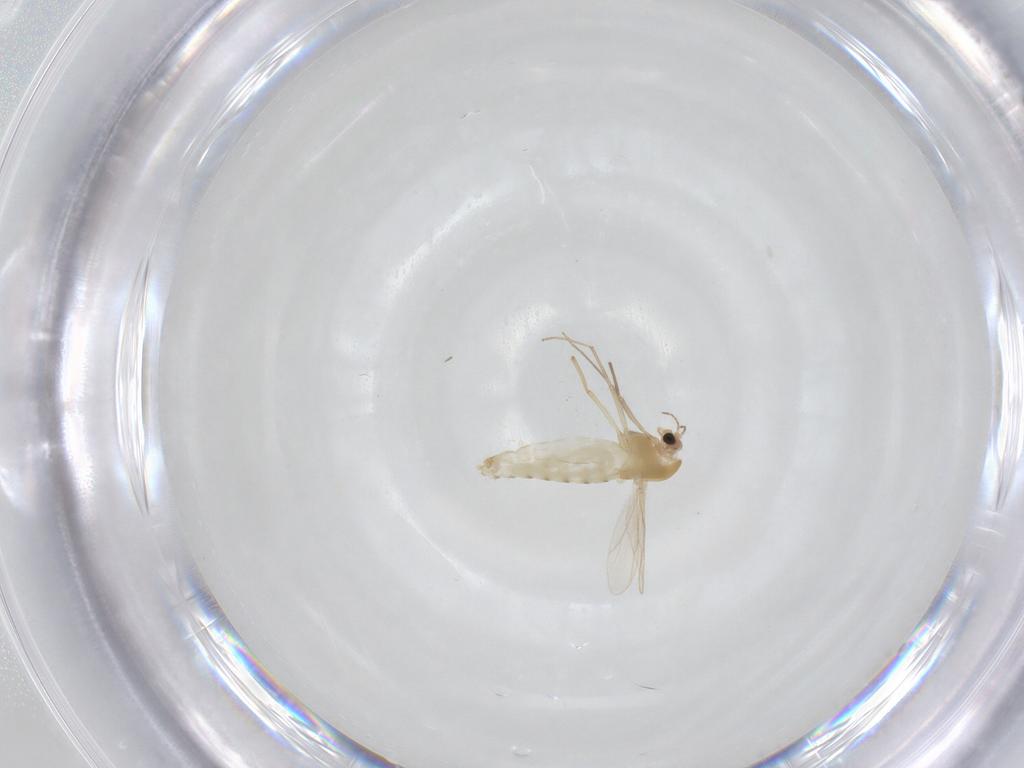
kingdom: Animalia
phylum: Arthropoda
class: Insecta
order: Diptera
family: Chironomidae
